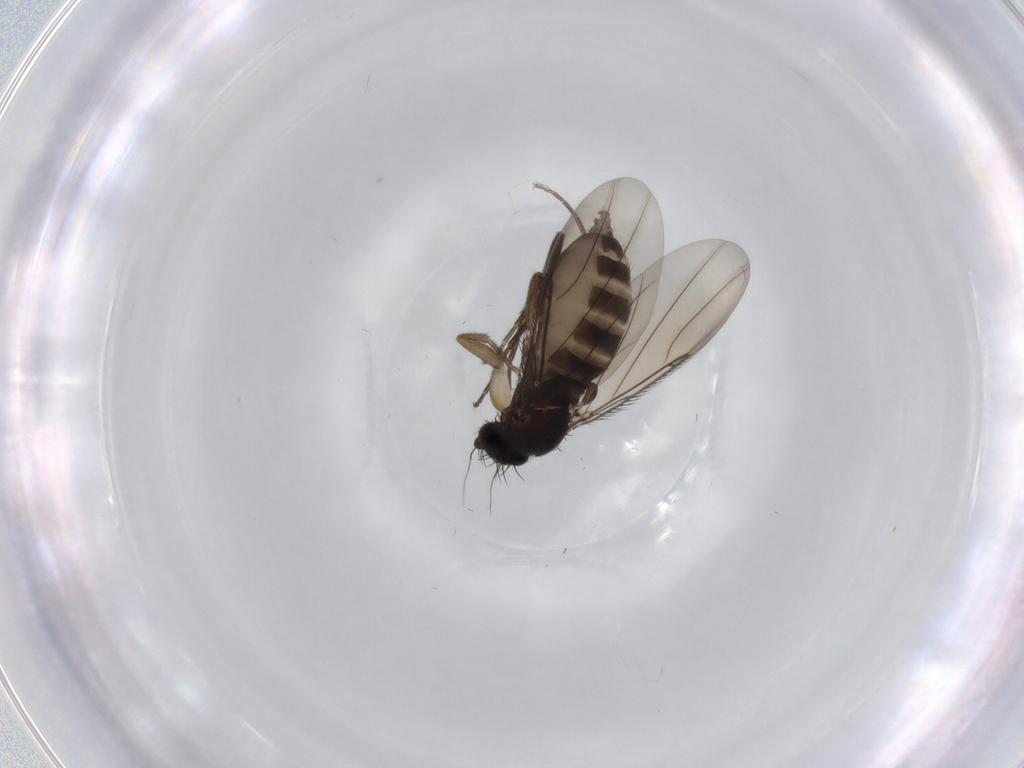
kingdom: Animalia
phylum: Arthropoda
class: Insecta
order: Diptera
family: Phoridae
